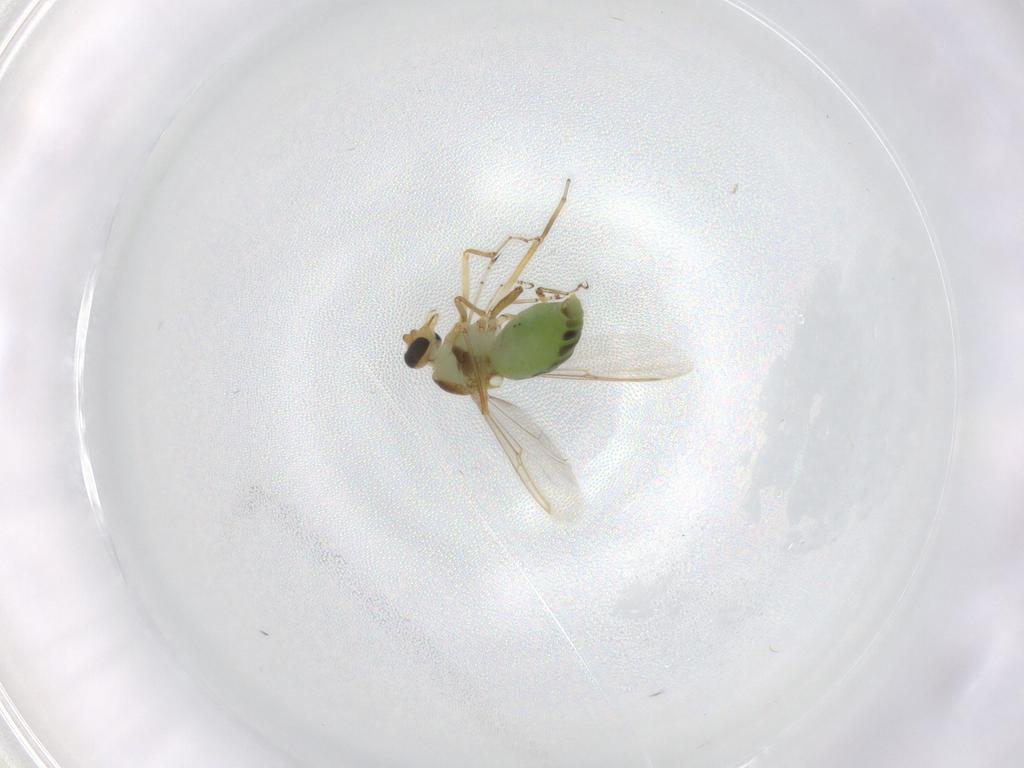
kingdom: Animalia
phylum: Arthropoda
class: Insecta
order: Diptera
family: Ceratopogonidae
